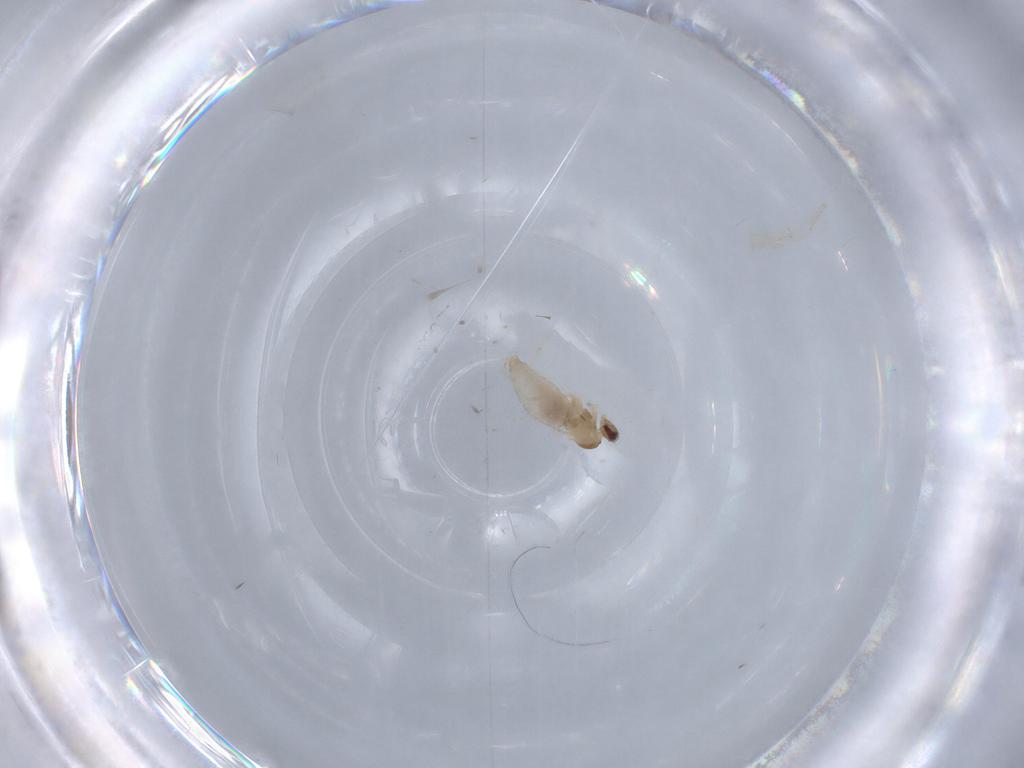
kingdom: Animalia
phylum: Arthropoda
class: Insecta
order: Diptera
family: Cecidomyiidae
